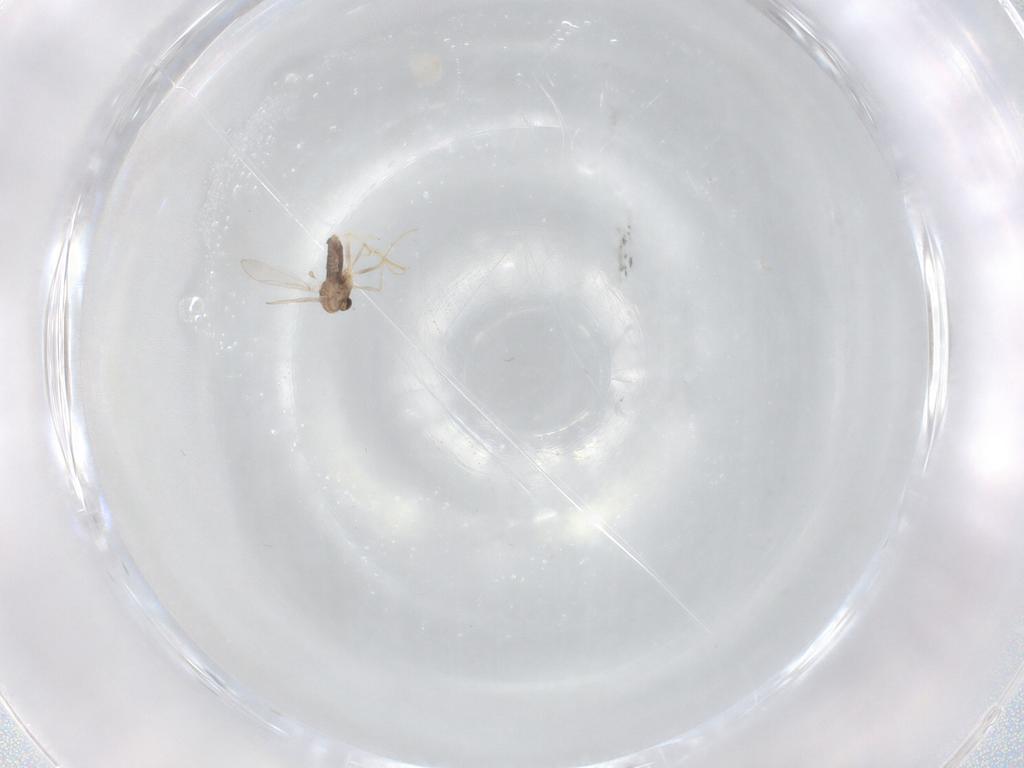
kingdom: Animalia
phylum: Arthropoda
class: Insecta
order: Diptera
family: Chironomidae
